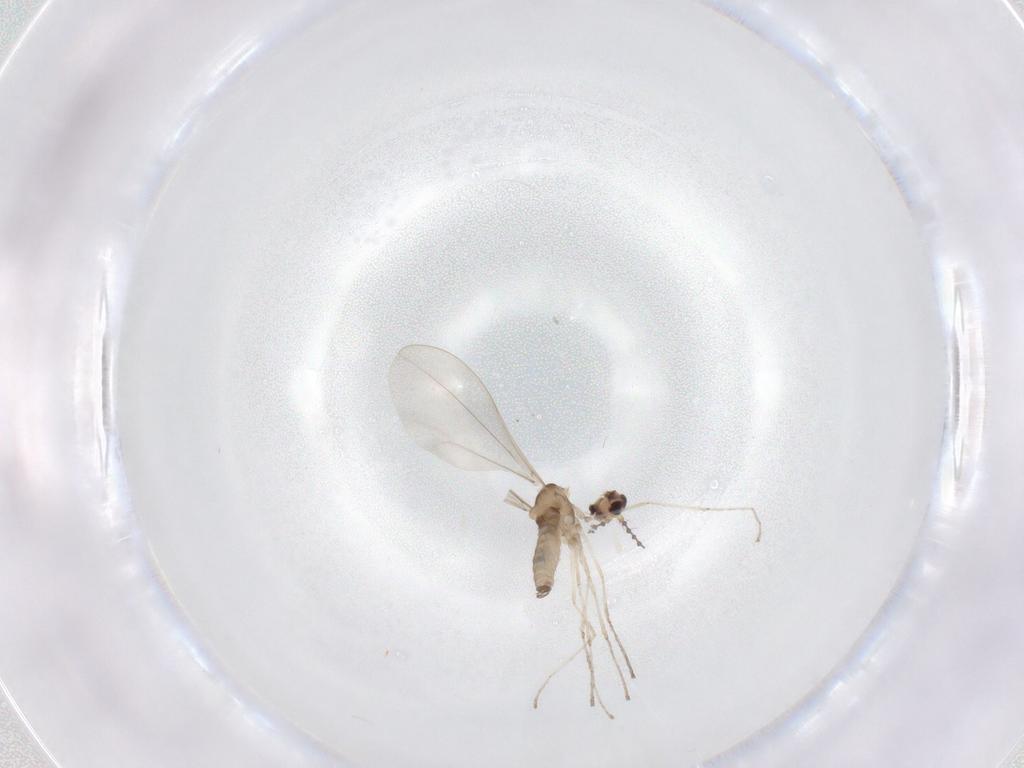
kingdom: Animalia
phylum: Arthropoda
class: Insecta
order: Diptera
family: Cecidomyiidae
